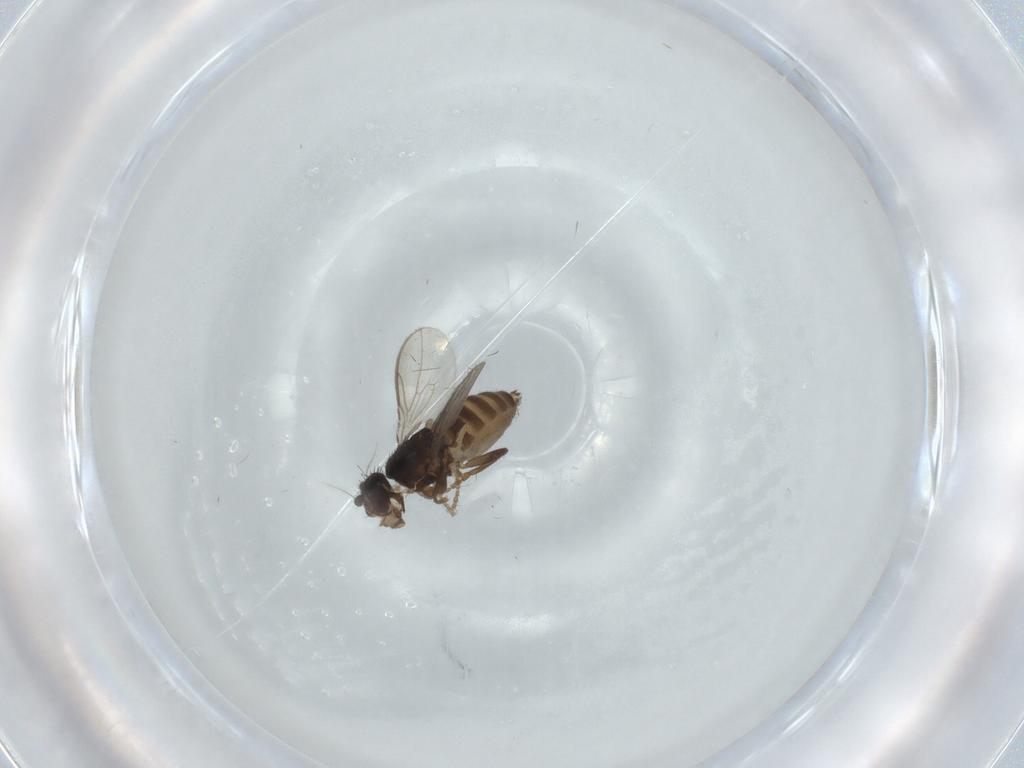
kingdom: Animalia
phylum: Arthropoda
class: Insecta
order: Diptera
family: Sphaeroceridae
